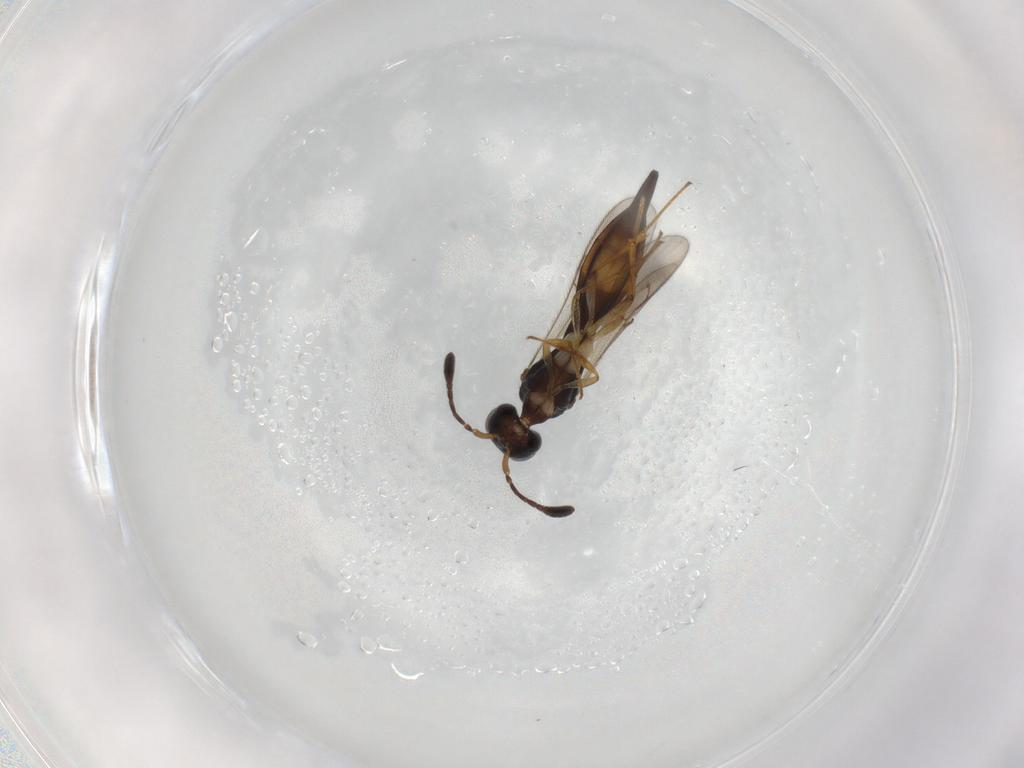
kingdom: Animalia
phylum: Arthropoda
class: Insecta
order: Hymenoptera
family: Scelionidae
